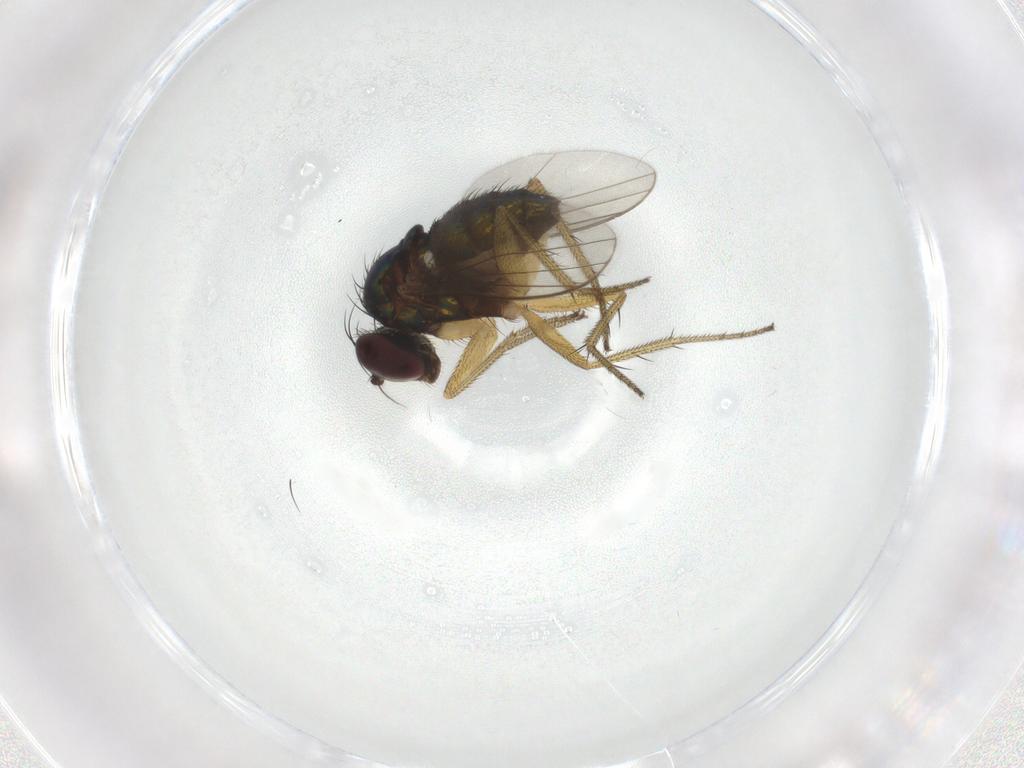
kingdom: Animalia
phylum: Arthropoda
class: Insecta
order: Diptera
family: Dolichopodidae
